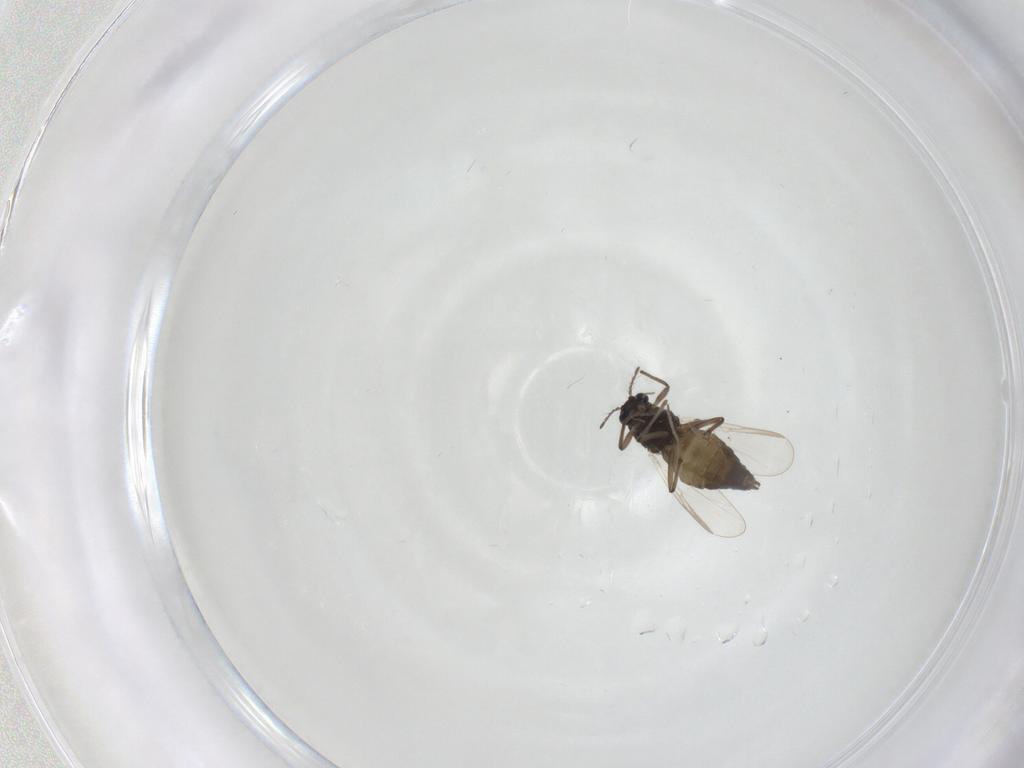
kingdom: Animalia
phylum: Arthropoda
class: Insecta
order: Diptera
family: Chironomidae
